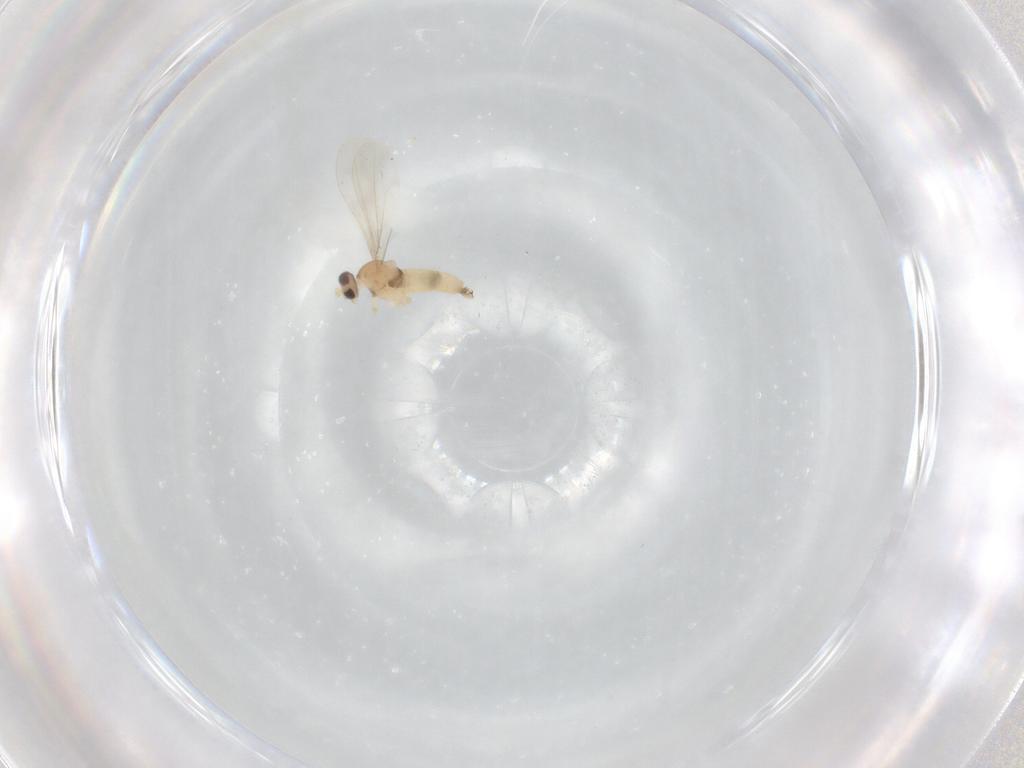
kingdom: Animalia
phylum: Arthropoda
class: Insecta
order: Diptera
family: Cecidomyiidae
